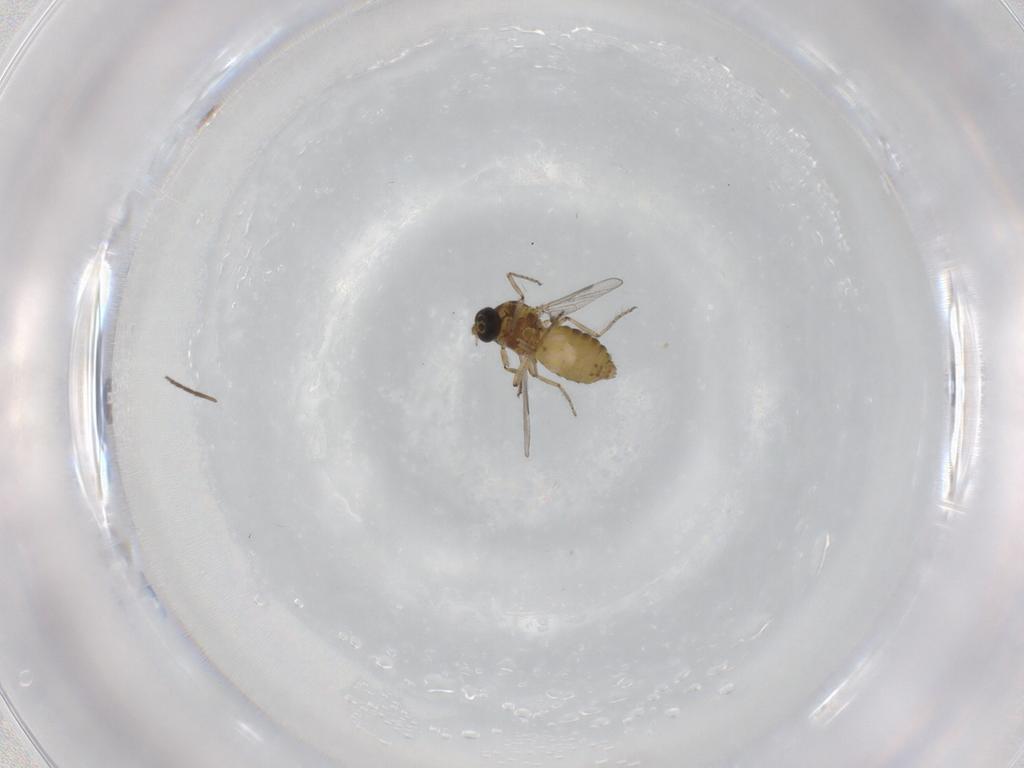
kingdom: Animalia
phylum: Arthropoda
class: Insecta
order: Diptera
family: Ceratopogonidae
